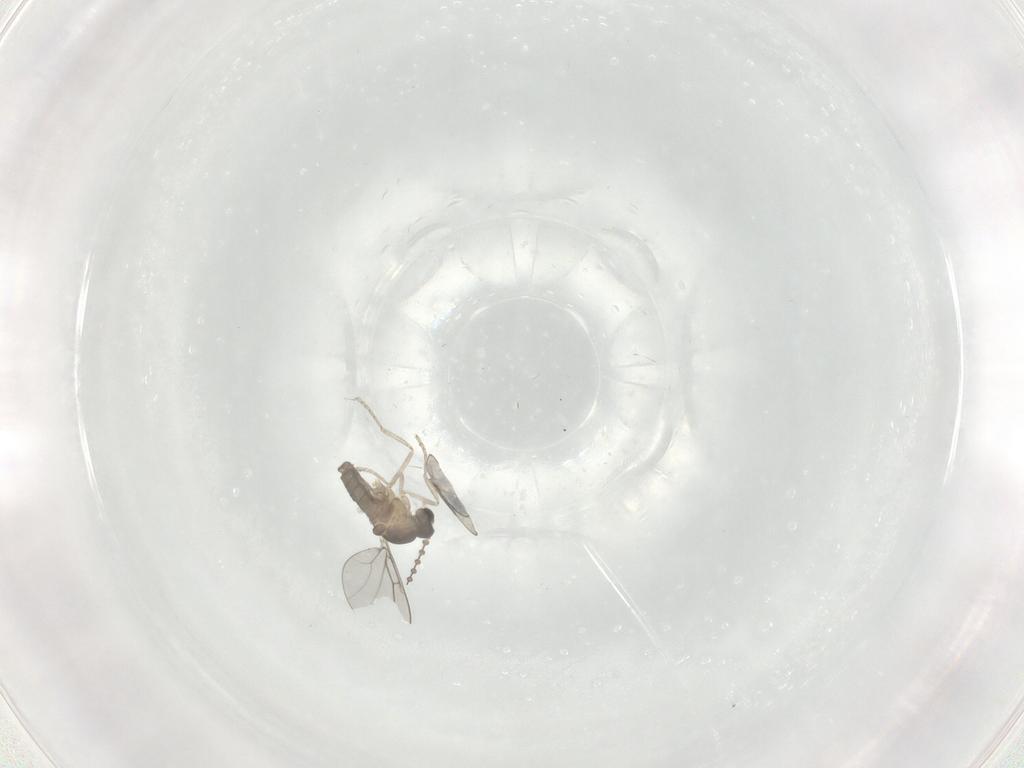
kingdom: Animalia
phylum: Arthropoda
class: Insecta
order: Diptera
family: Cecidomyiidae
